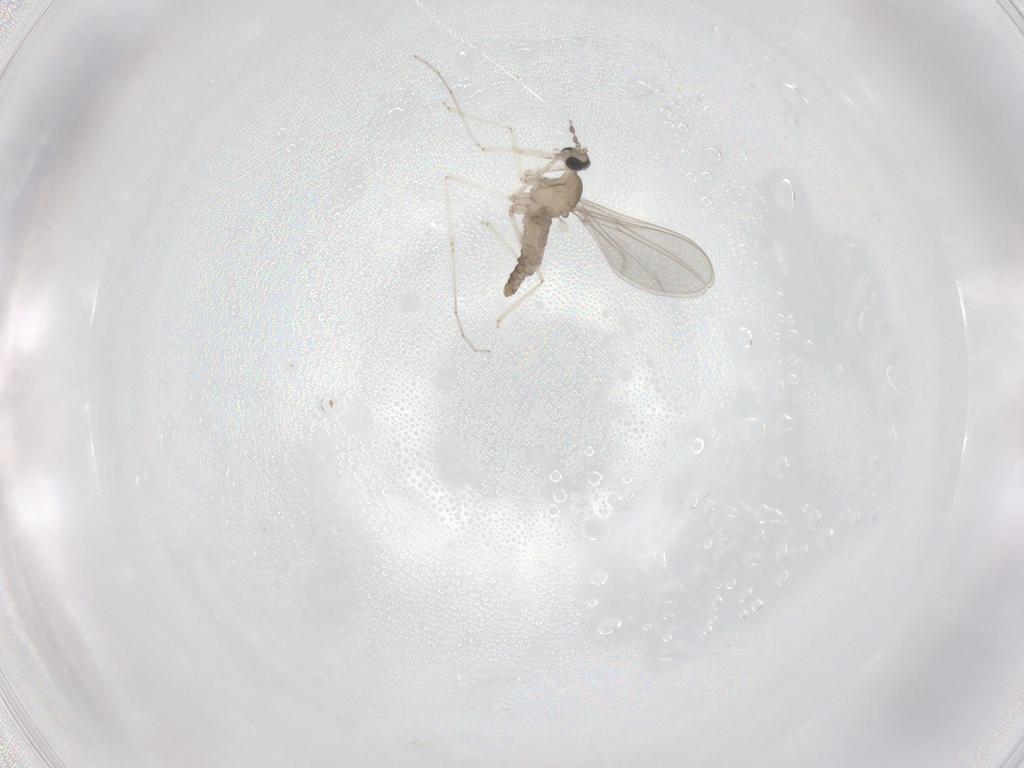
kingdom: Animalia
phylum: Arthropoda
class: Insecta
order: Diptera
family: Cecidomyiidae
